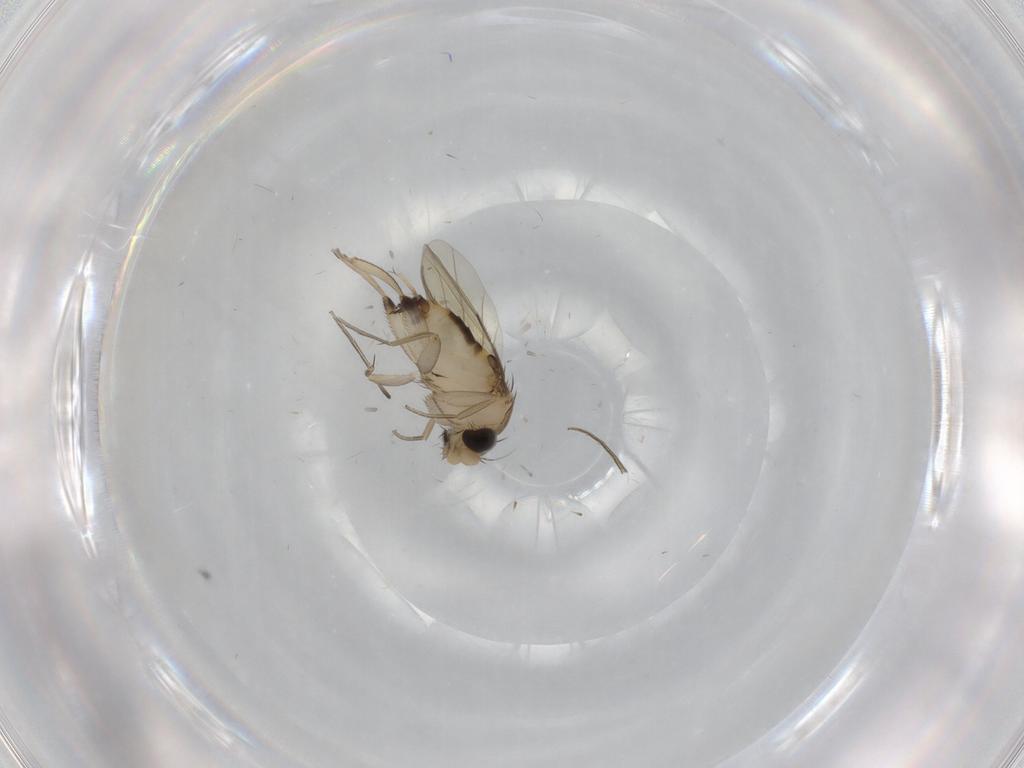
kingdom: Animalia
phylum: Arthropoda
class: Insecta
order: Diptera
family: Phoridae
